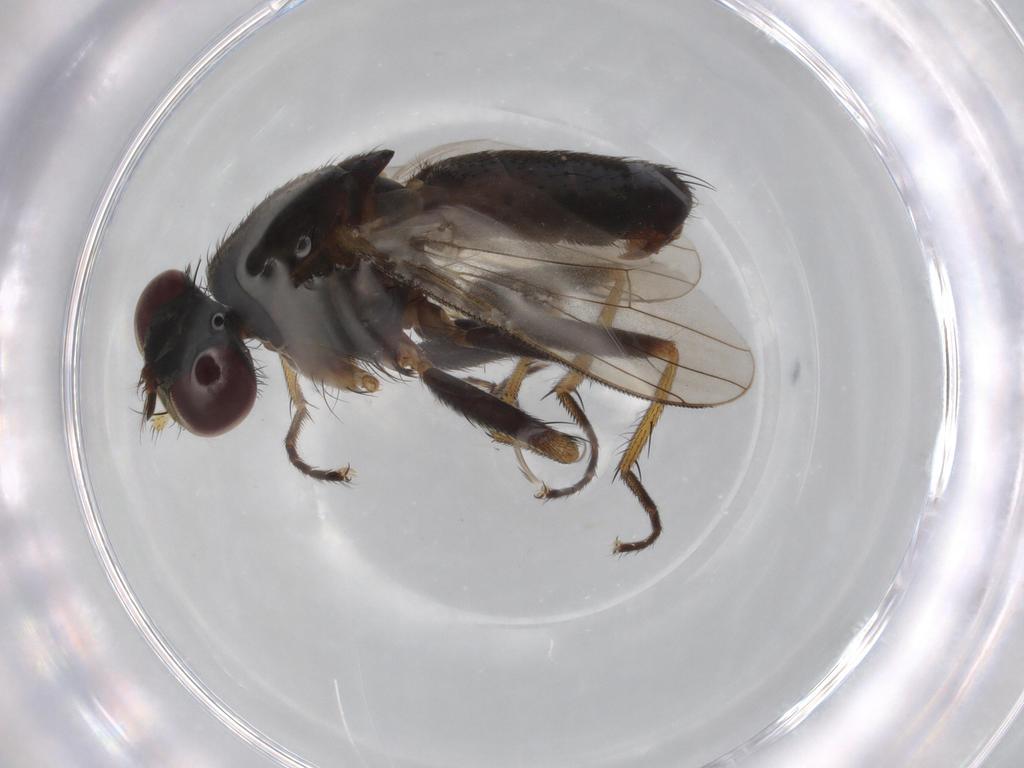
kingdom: Animalia
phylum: Arthropoda
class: Insecta
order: Diptera
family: Muscidae
